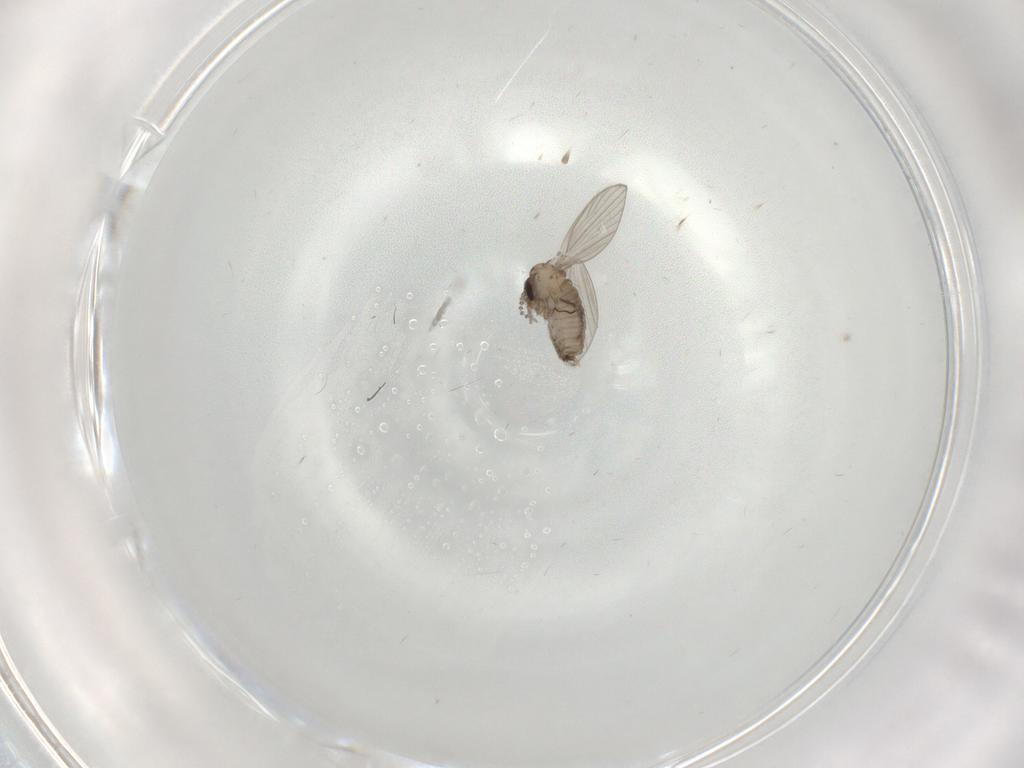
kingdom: Animalia
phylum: Arthropoda
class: Insecta
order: Diptera
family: Psychodidae
